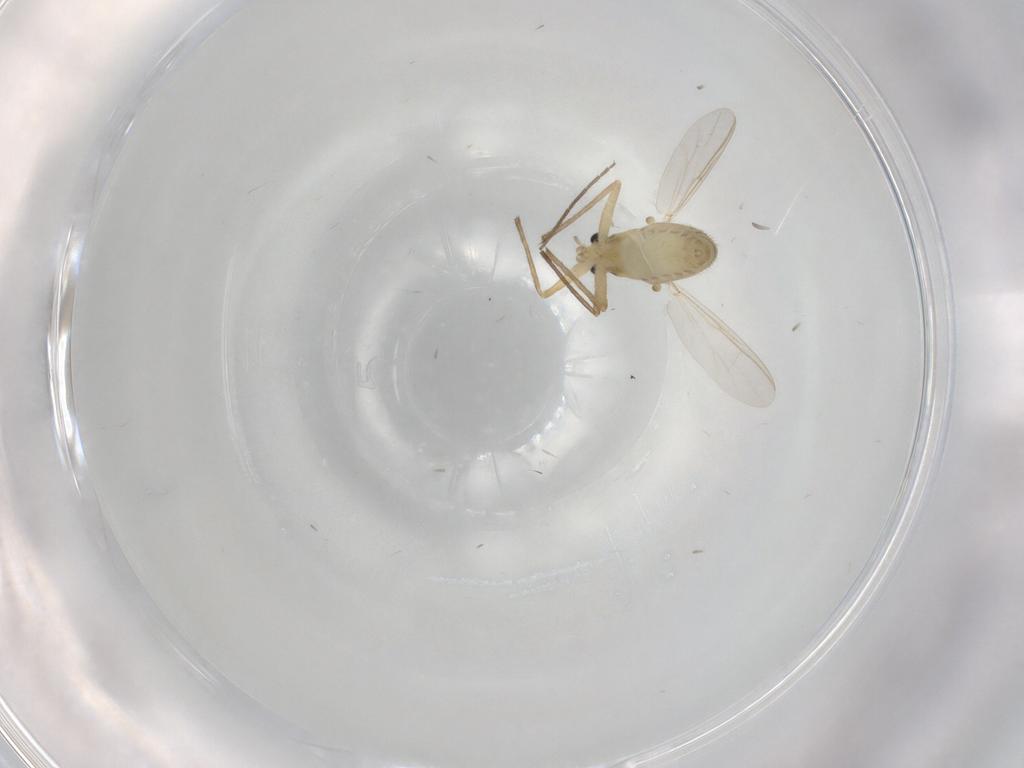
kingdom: Animalia
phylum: Arthropoda
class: Insecta
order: Diptera
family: Chironomidae
